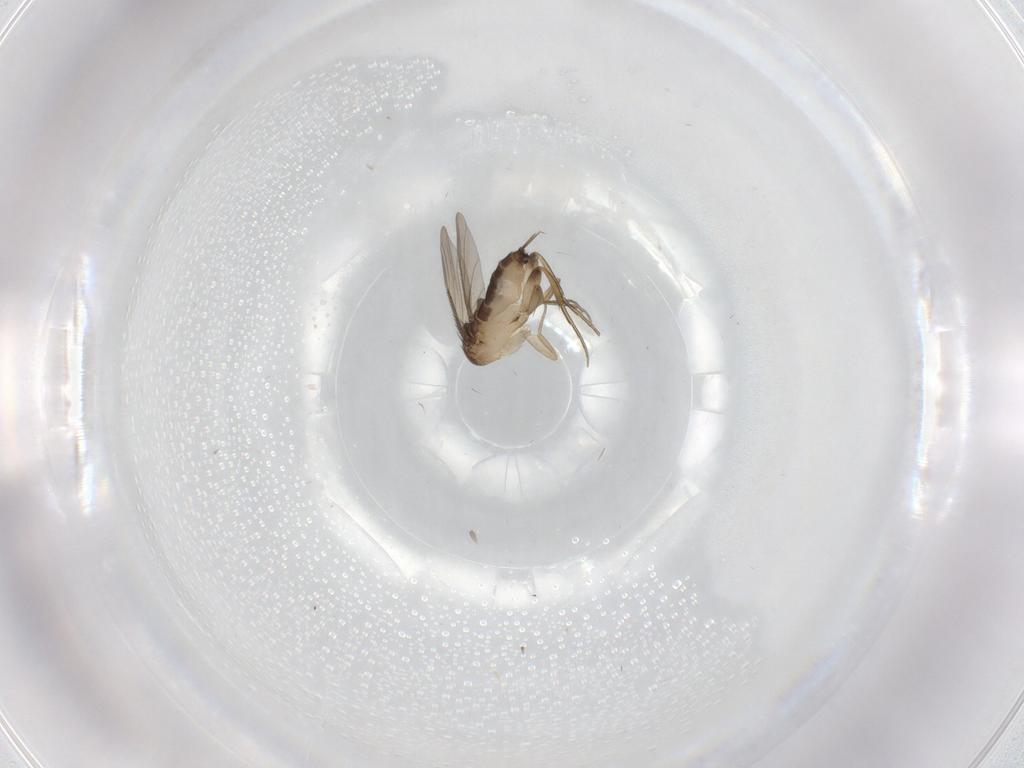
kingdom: Animalia
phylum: Arthropoda
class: Insecta
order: Diptera
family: Phoridae
